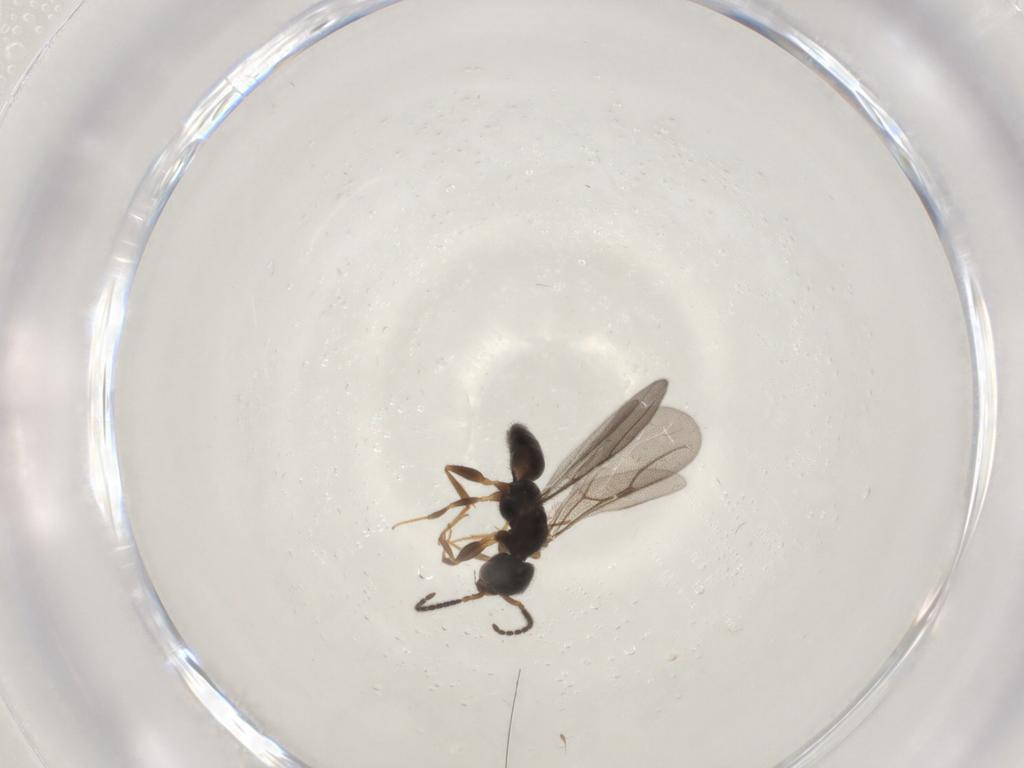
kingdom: Animalia
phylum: Arthropoda
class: Insecta
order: Hymenoptera
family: Bethylidae
